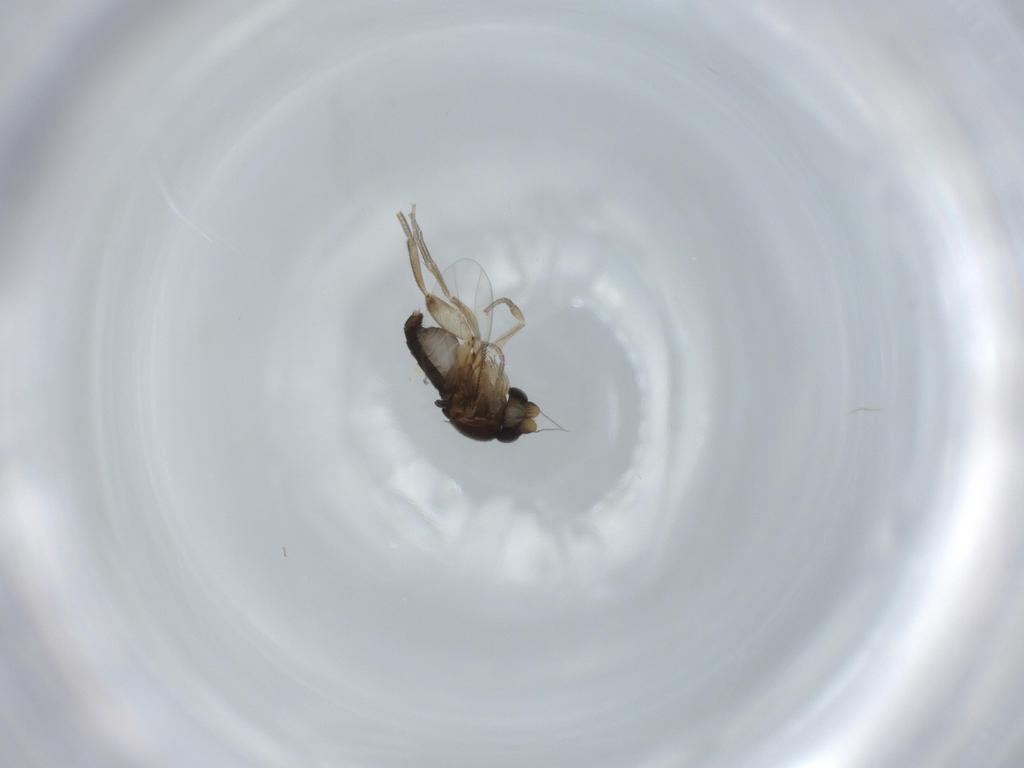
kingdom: Animalia
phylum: Arthropoda
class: Insecta
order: Diptera
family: Phoridae
